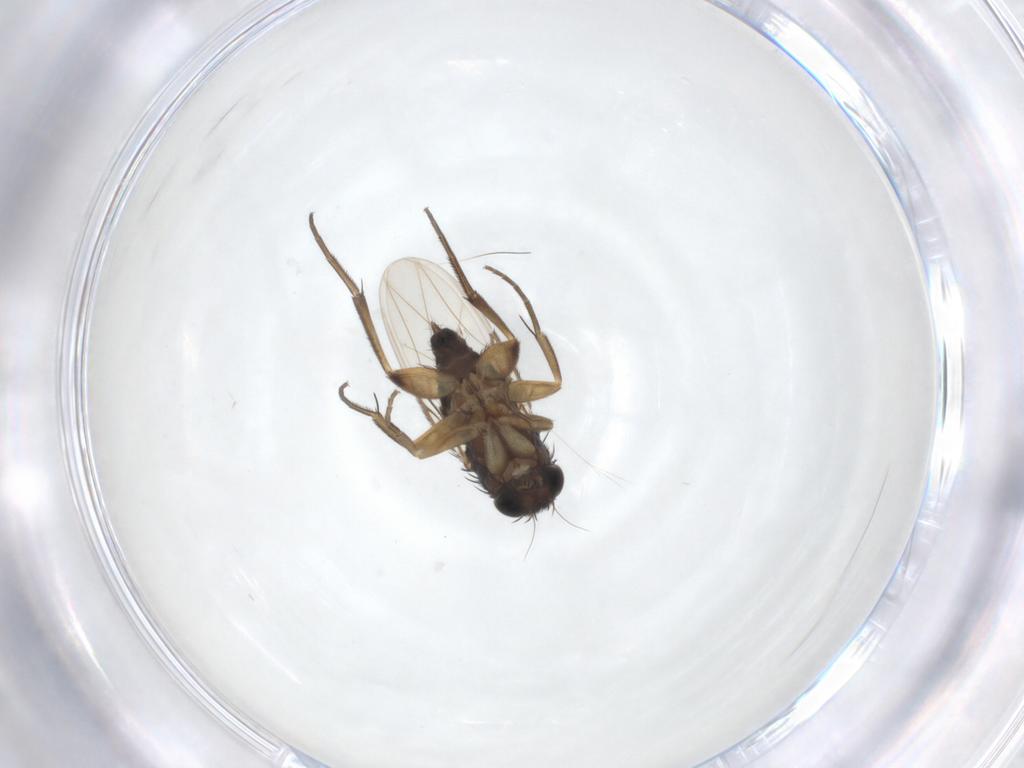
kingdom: Animalia
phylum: Arthropoda
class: Insecta
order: Diptera
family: Phoridae
